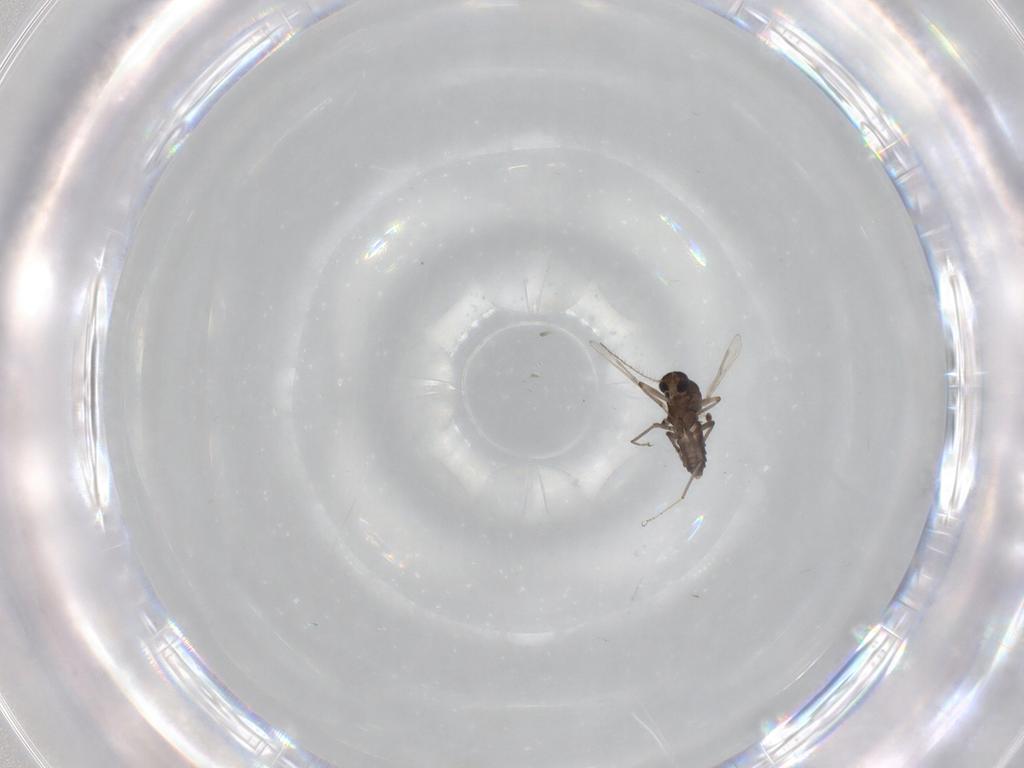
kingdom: Animalia
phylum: Arthropoda
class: Insecta
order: Diptera
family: Ceratopogonidae
